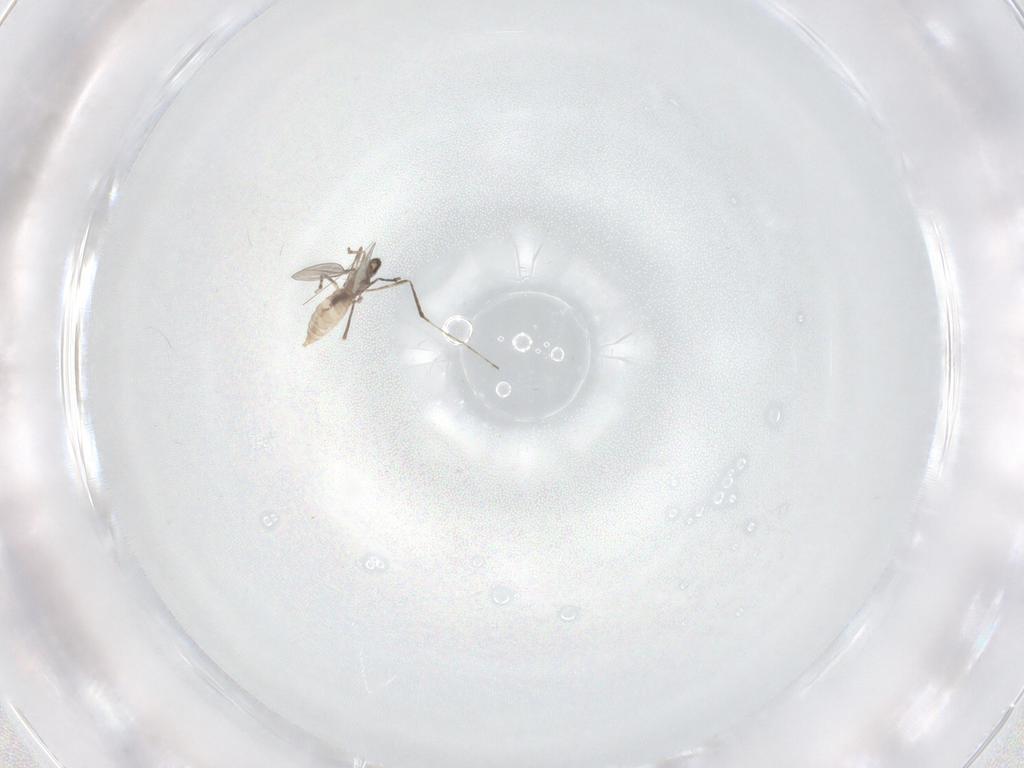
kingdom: Animalia
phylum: Arthropoda
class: Insecta
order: Diptera
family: Cecidomyiidae
